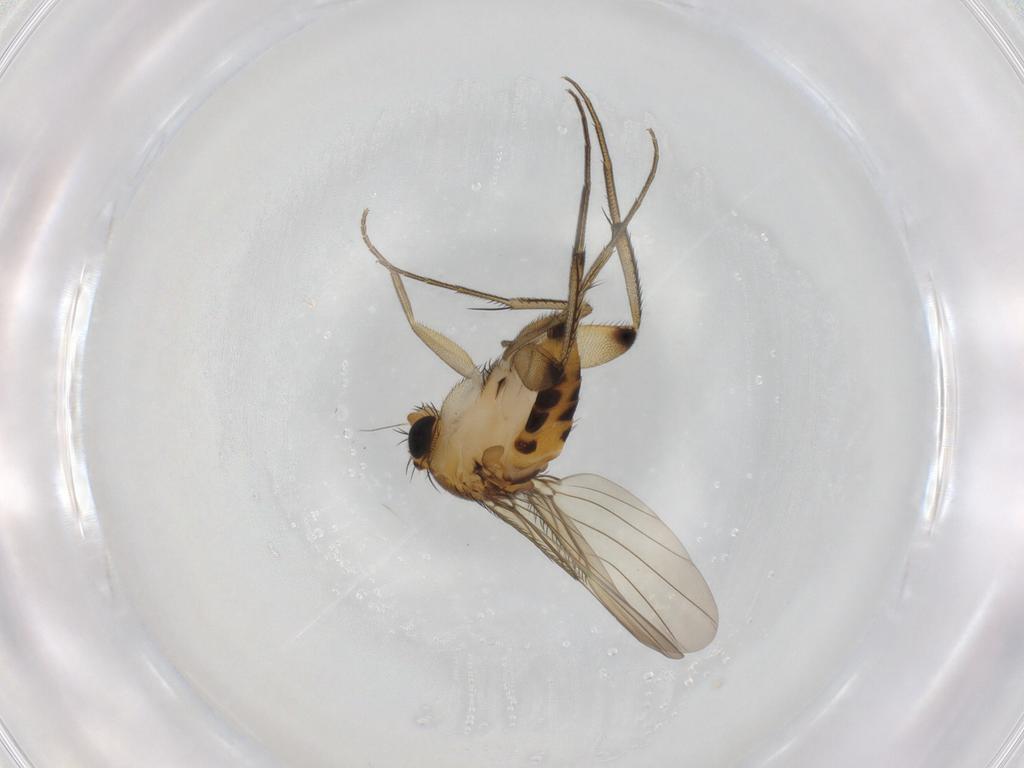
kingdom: Animalia
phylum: Arthropoda
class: Insecta
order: Diptera
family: Phoridae
